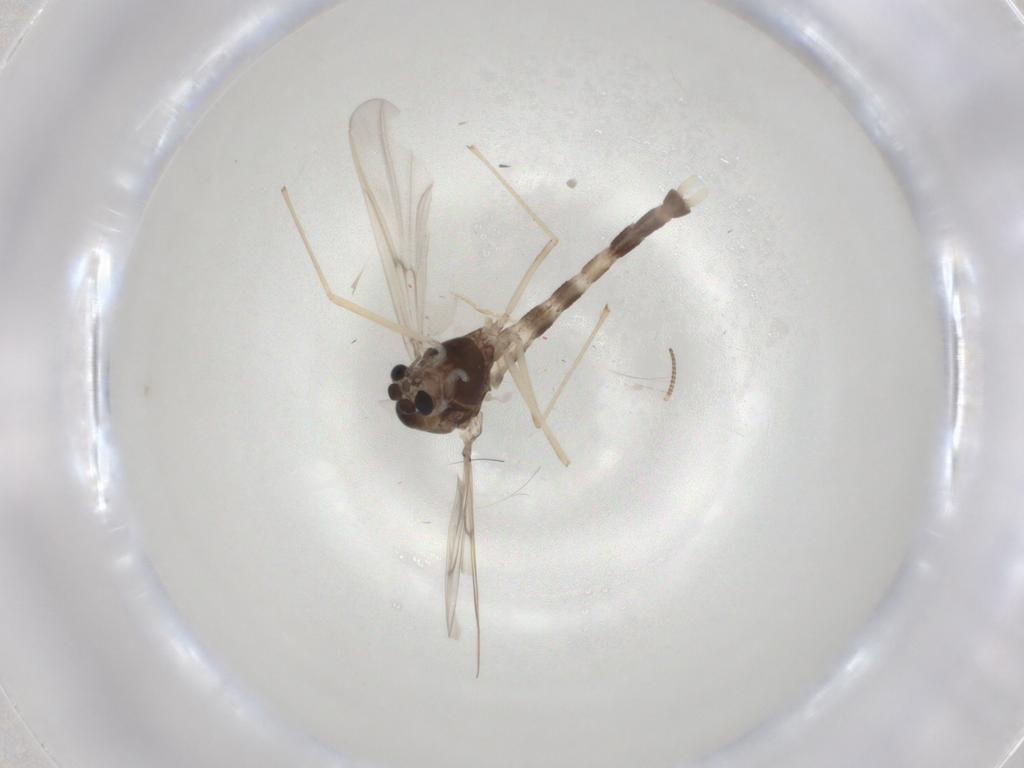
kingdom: Animalia
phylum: Arthropoda
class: Insecta
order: Diptera
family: Chironomidae
